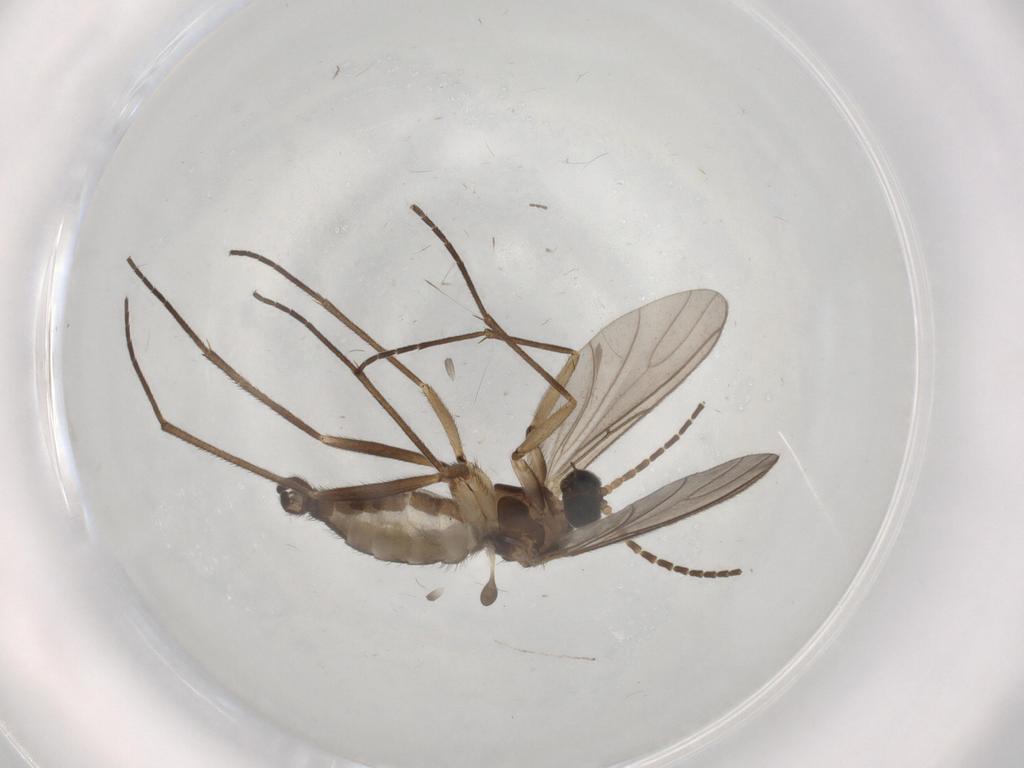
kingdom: Animalia
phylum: Arthropoda
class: Insecta
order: Diptera
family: Sciaridae
